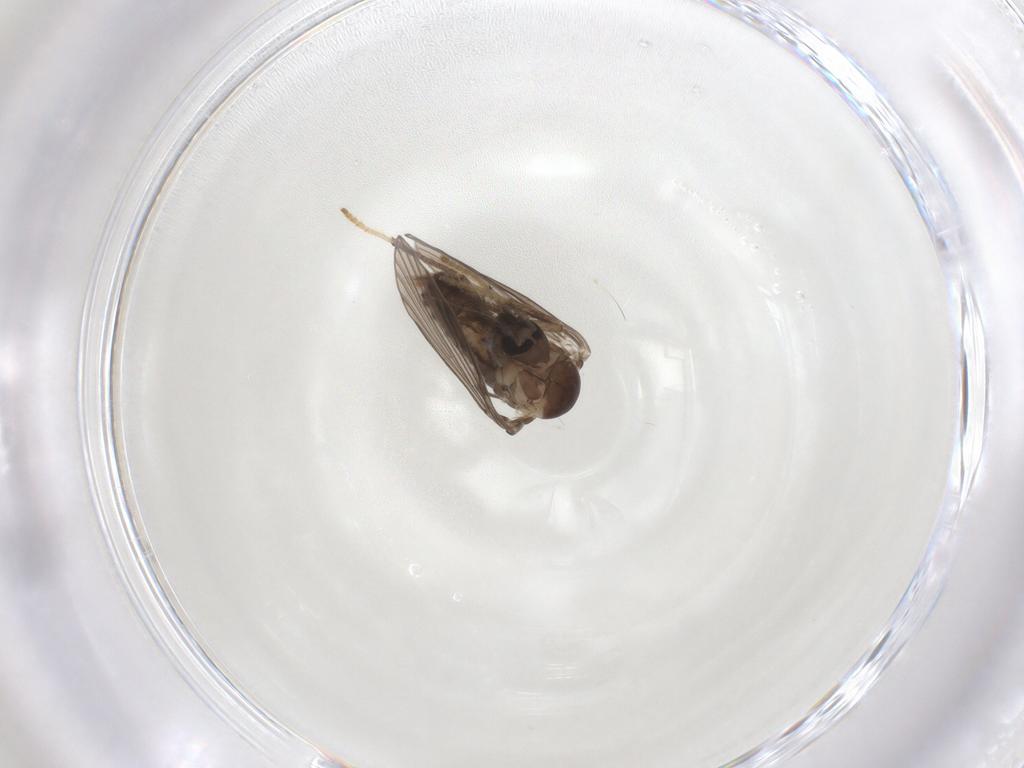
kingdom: Animalia
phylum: Arthropoda
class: Insecta
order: Diptera
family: Psychodidae
